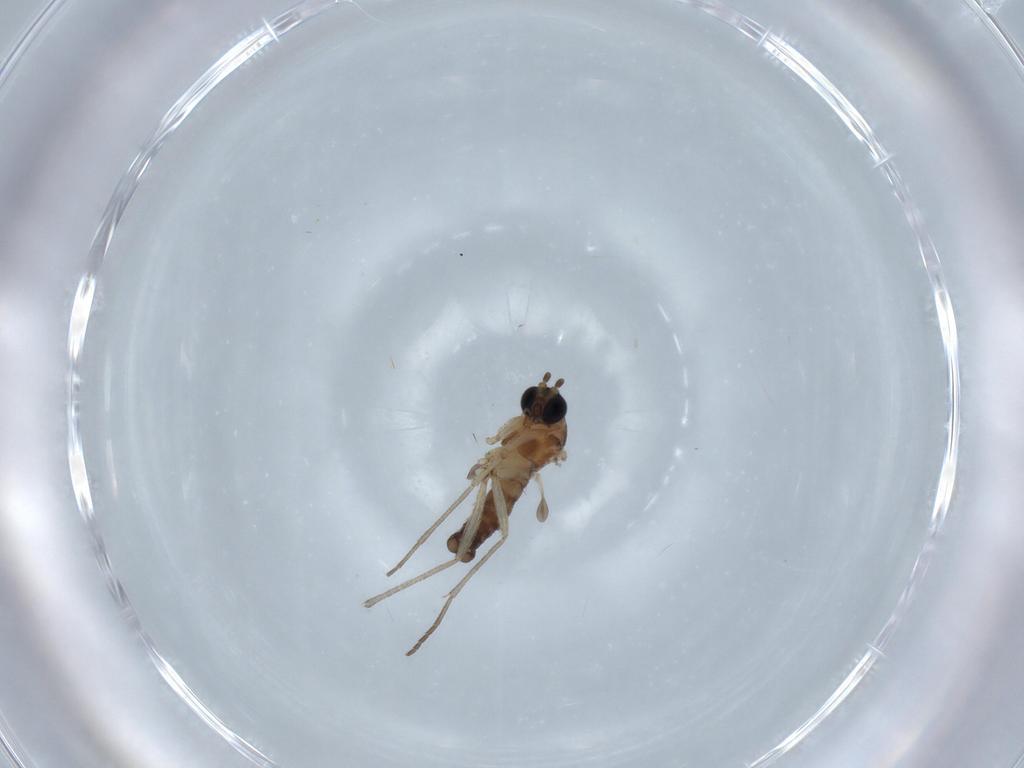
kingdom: Animalia
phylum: Arthropoda
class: Insecta
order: Diptera
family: Sciaridae
